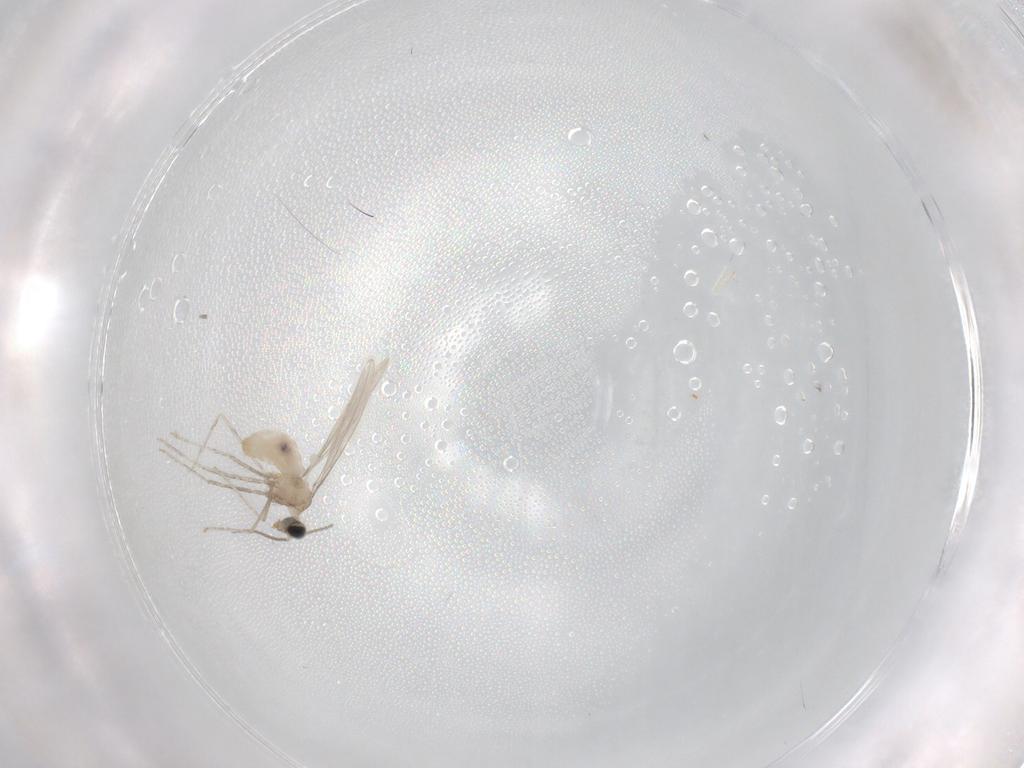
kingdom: Animalia
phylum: Arthropoda
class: Insecta
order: Diptera
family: Cecidomyiidae
